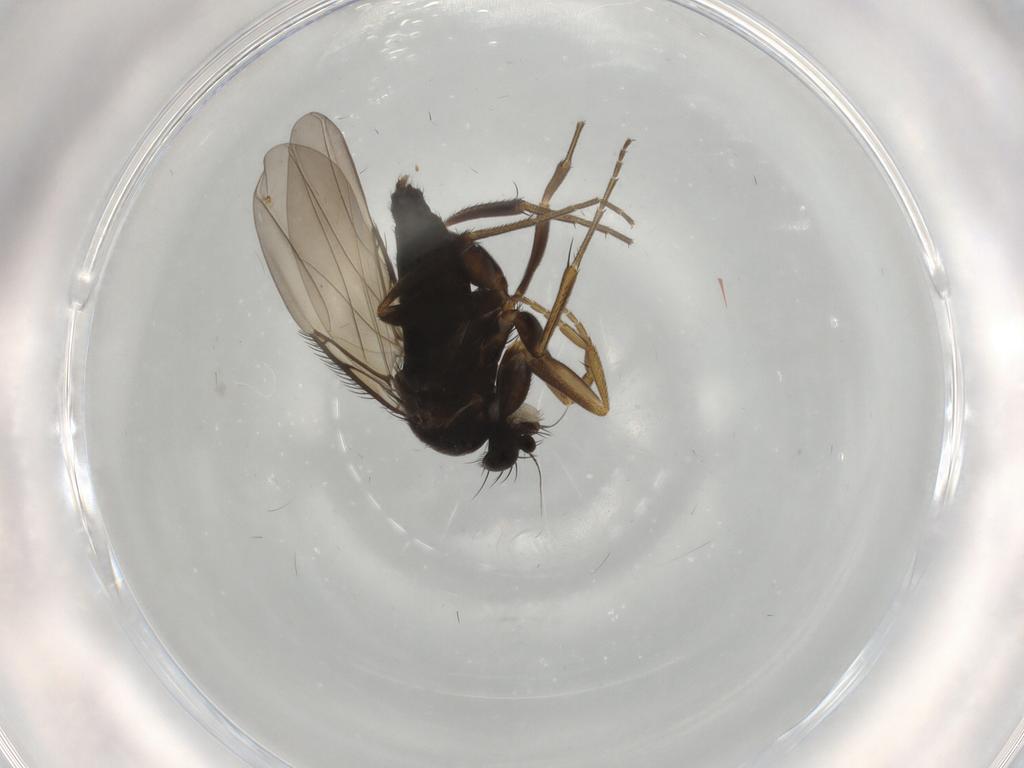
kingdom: Animalia
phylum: Arthropoda
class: Insecta
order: Diptera
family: Phoridae
